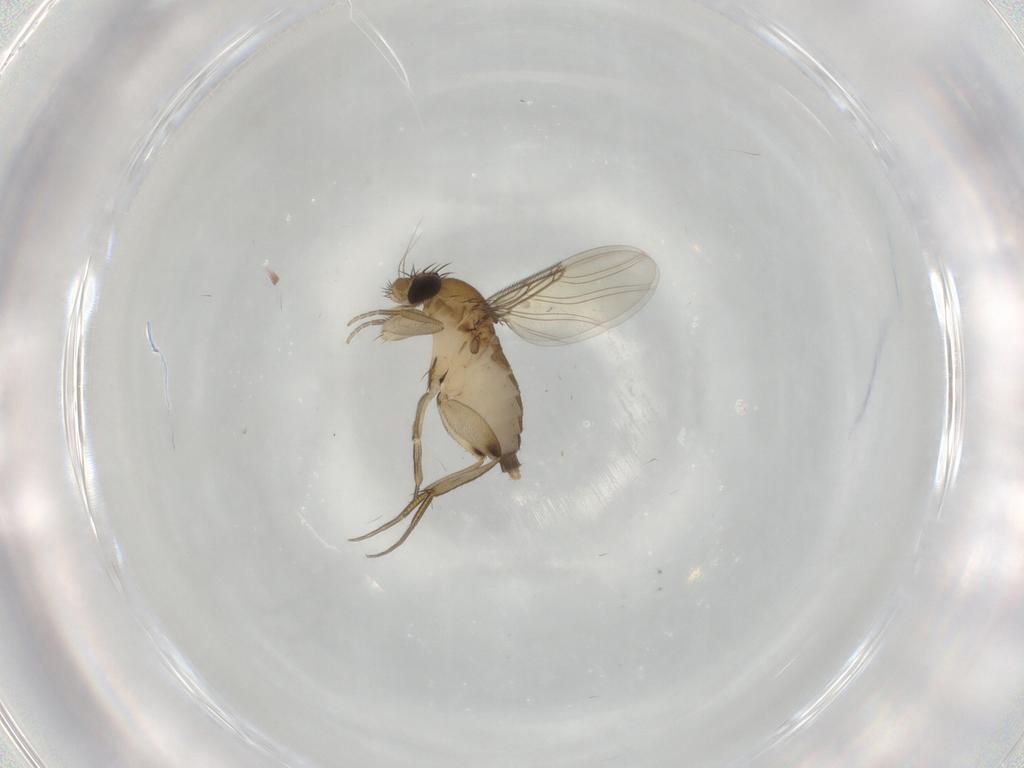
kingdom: Animalia
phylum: Arthropoda
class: Insecta
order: Diptera
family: Phoridae
